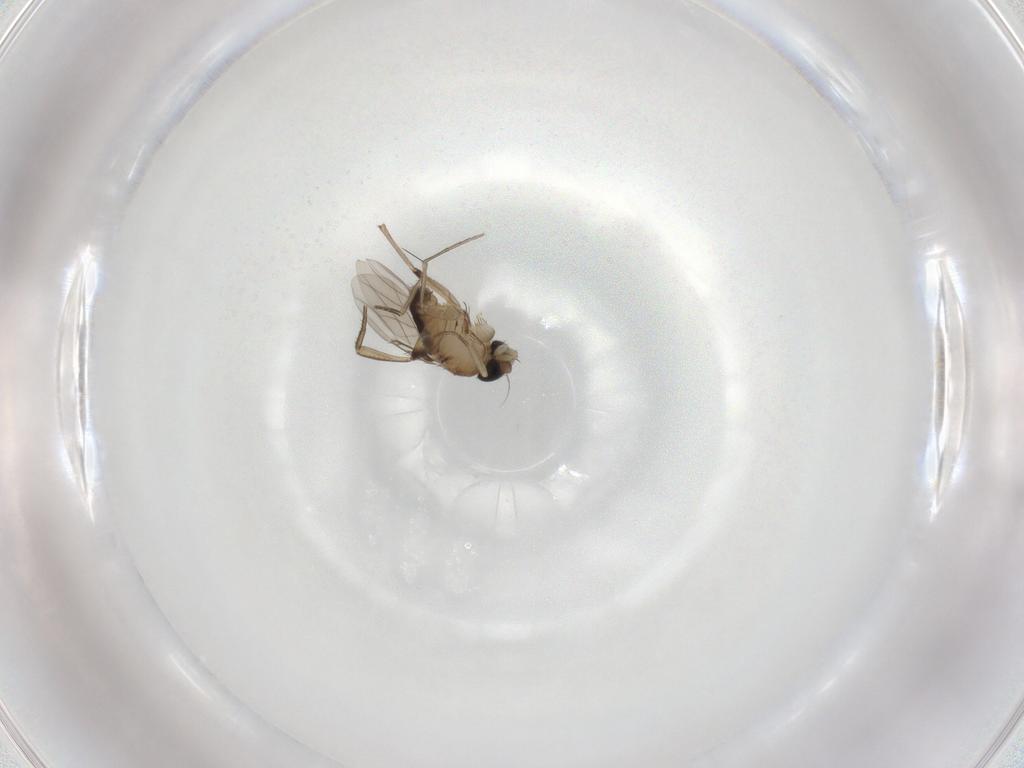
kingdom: Animalia
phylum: Arthropoda
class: Insecta
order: Diptera
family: Phoridae
